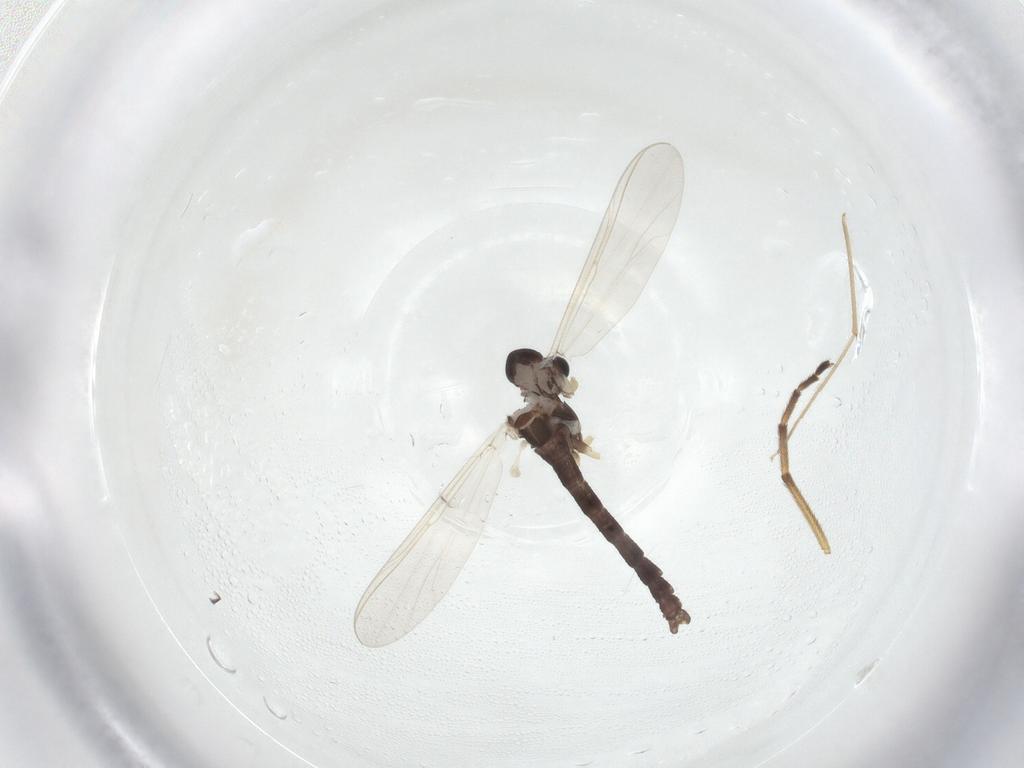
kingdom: Animalia
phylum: Arthropoda
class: Insecta
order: Diptera
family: Chironomidae
